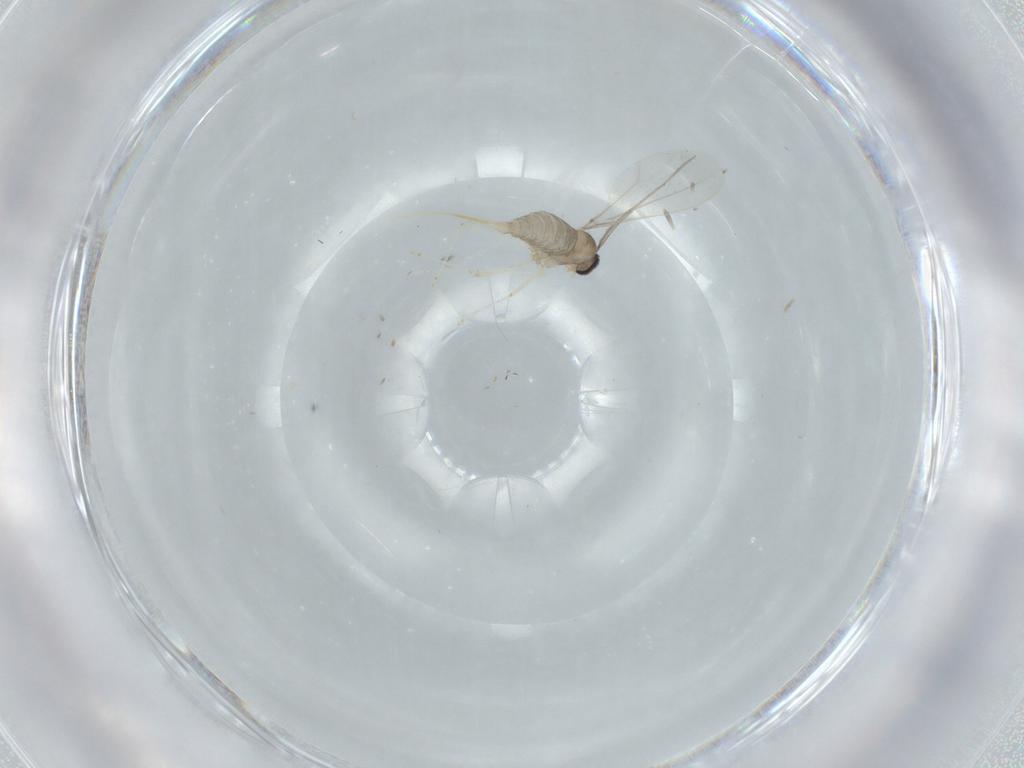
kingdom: Animalia
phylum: Arthropoda
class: Insecta
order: Diptera
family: Cecidomyiidae
